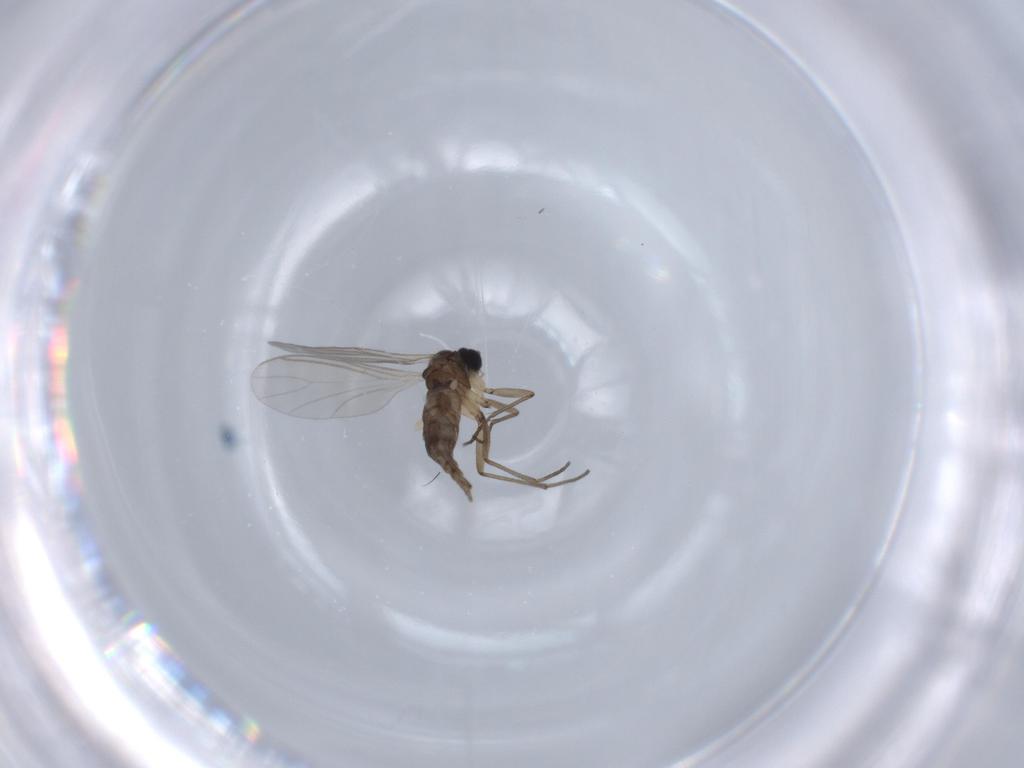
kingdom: Animalia
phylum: Arthropoda
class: Insecta
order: Diptera
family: Tabanidae
